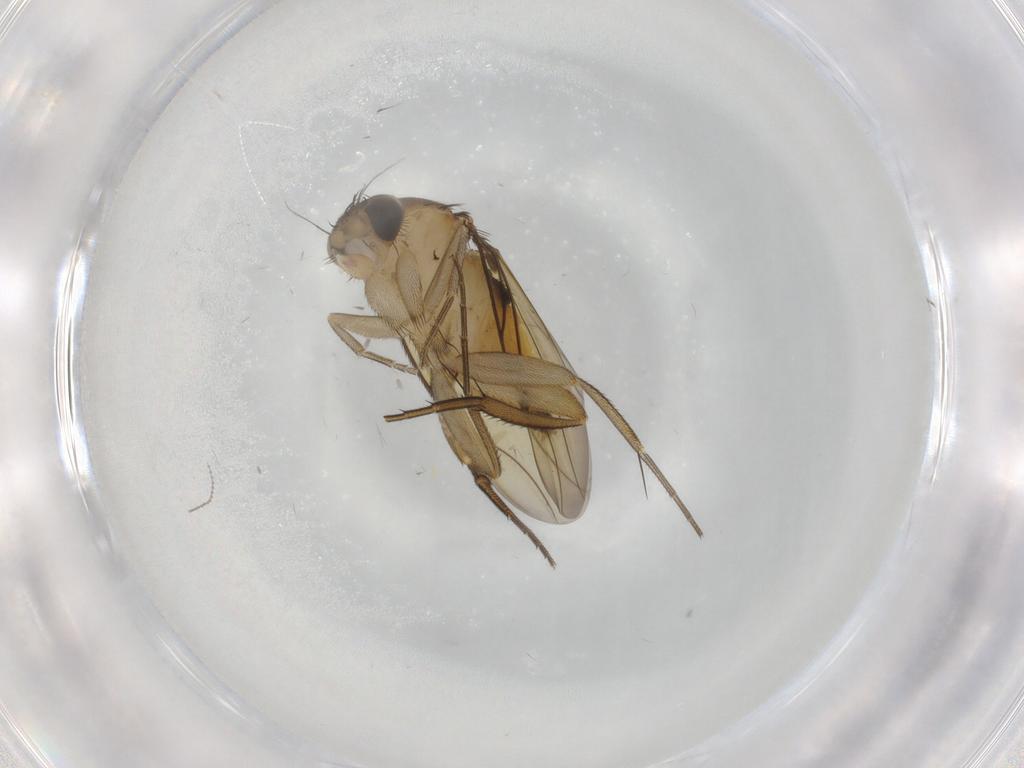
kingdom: Animalia
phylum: Arthropoda
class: Insecta
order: Diptera
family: Cecidomyiidae
